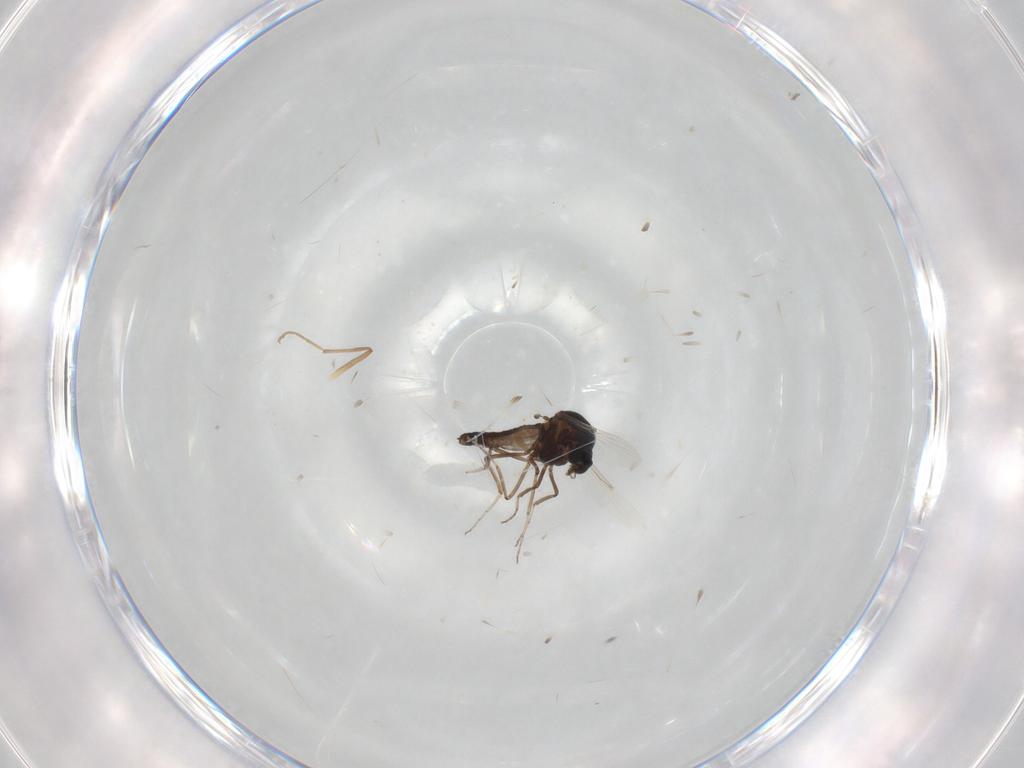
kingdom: Animalia
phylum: Arthropoda
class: Insecta
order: Diptera
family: Ceratopogonidae
